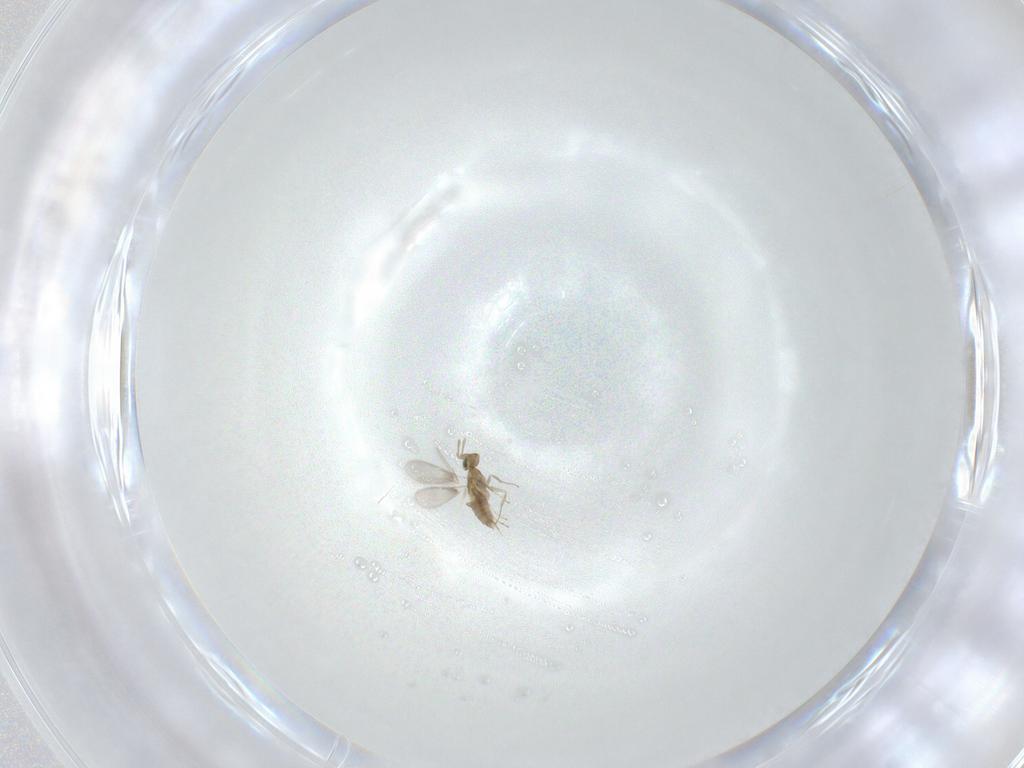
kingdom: Animalia
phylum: Arthropoda
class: Insecta
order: Hymenoptera
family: Aphelinidae
